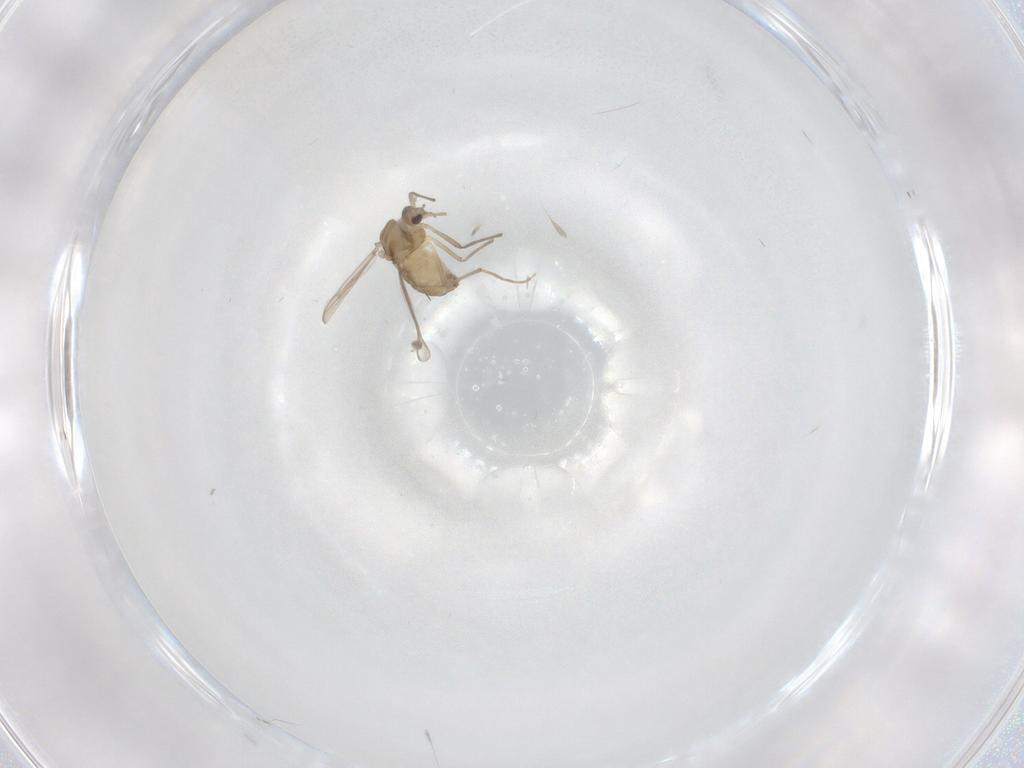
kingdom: Animalia
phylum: Arthropoda
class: Insecta
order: Diptera
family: Chironomidae
